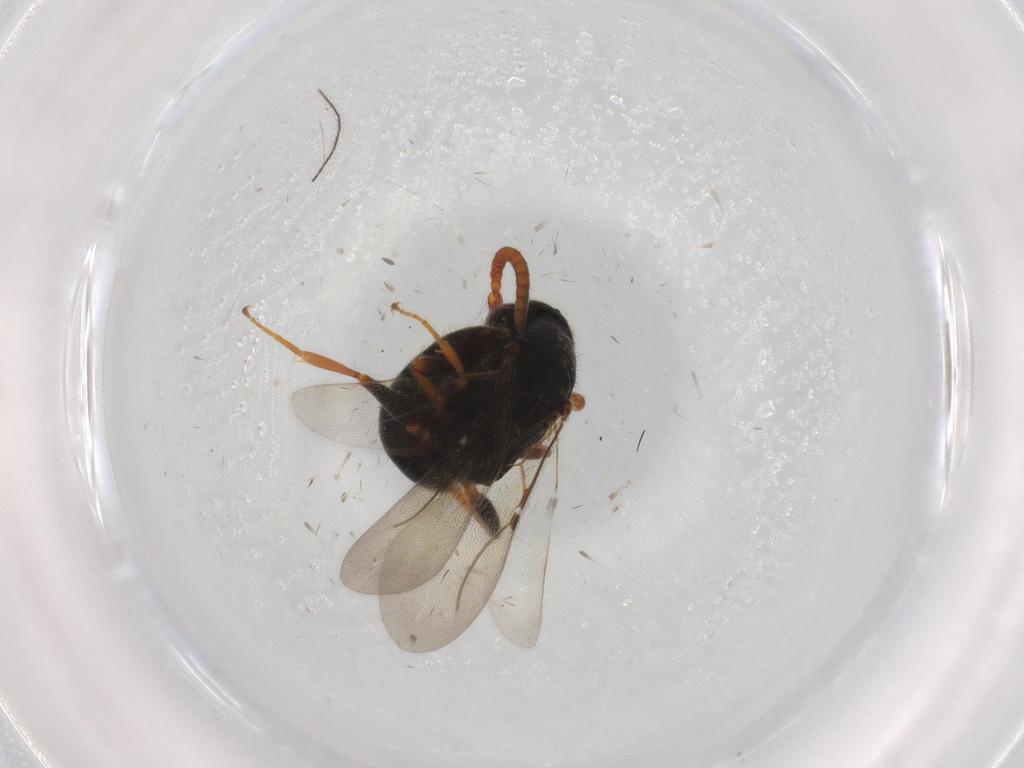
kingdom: Animalia
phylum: Arthropoda
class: Insecta
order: Hymenoptera
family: Bethylidae
